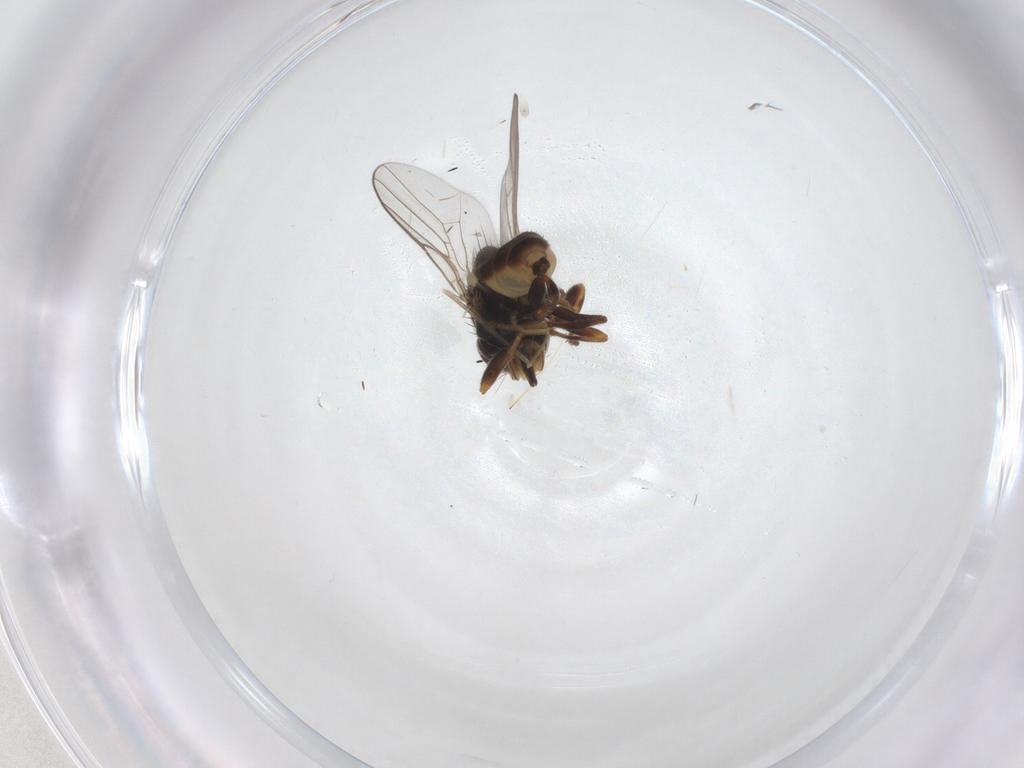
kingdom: Animalia
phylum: Arthropoda
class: Insecta
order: Diptera
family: Chloropidae
